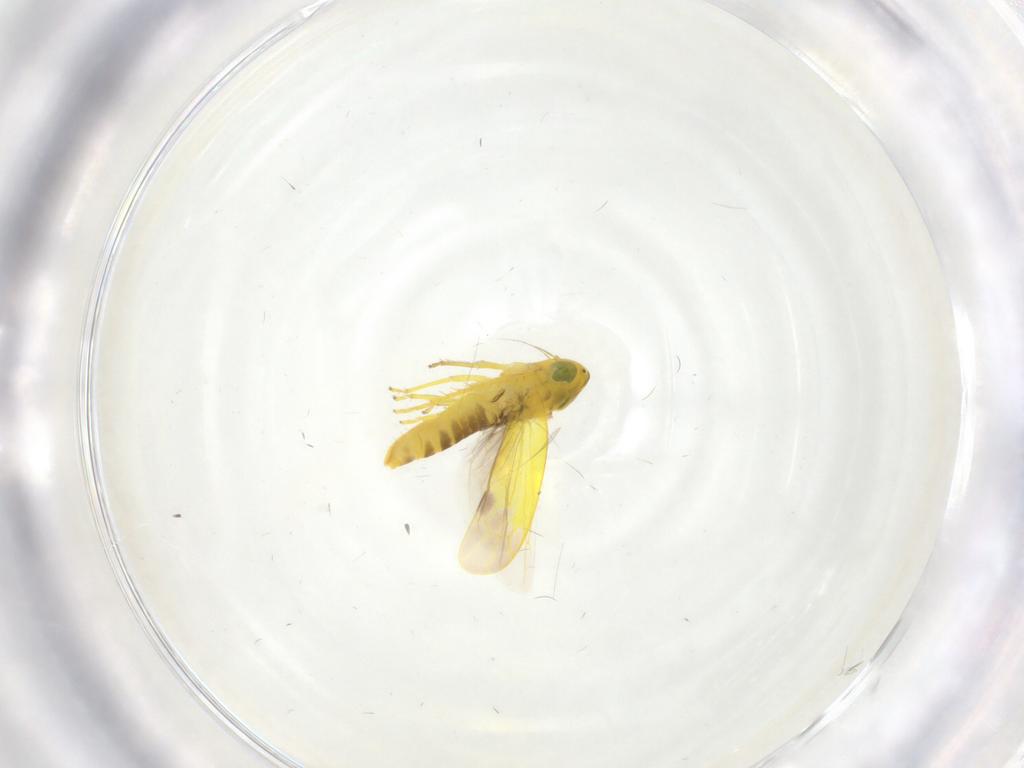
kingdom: Animalia
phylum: Arthropoda
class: Insecta
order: Hemiptera
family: Cicadellidae
